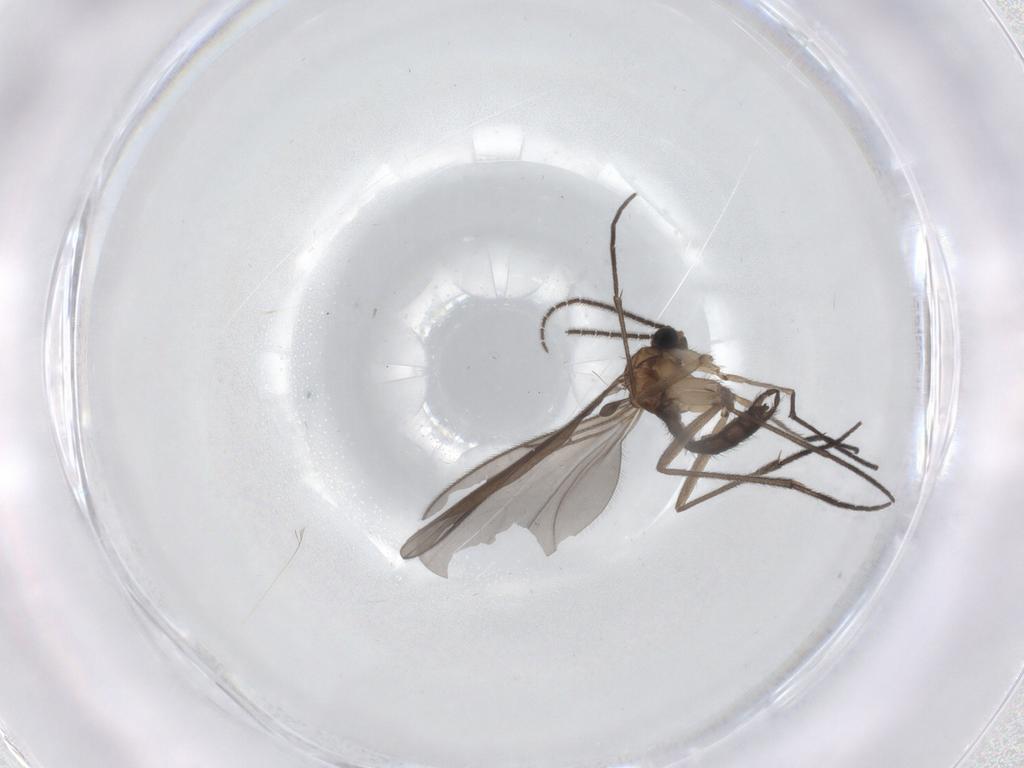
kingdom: Animalia
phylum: Arthropoda
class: Insecta
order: Diptera
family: Sciaridae
